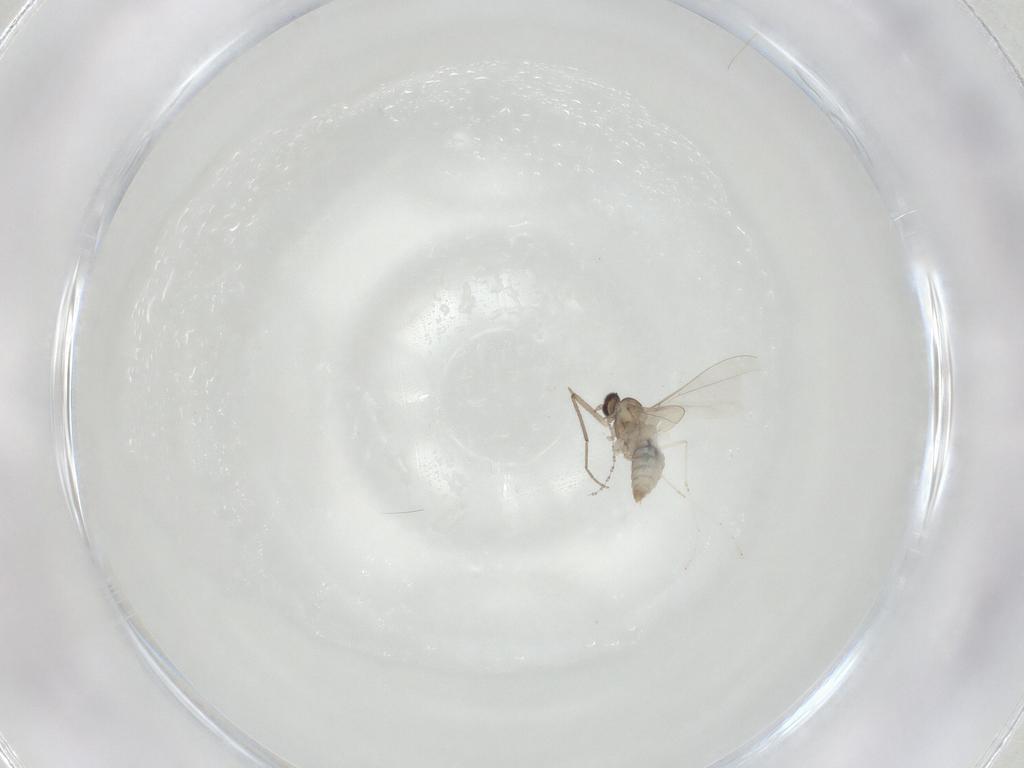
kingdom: Animalia
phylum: Arthropoda
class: Insecta
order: Diptera
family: Cecidomyiidae
